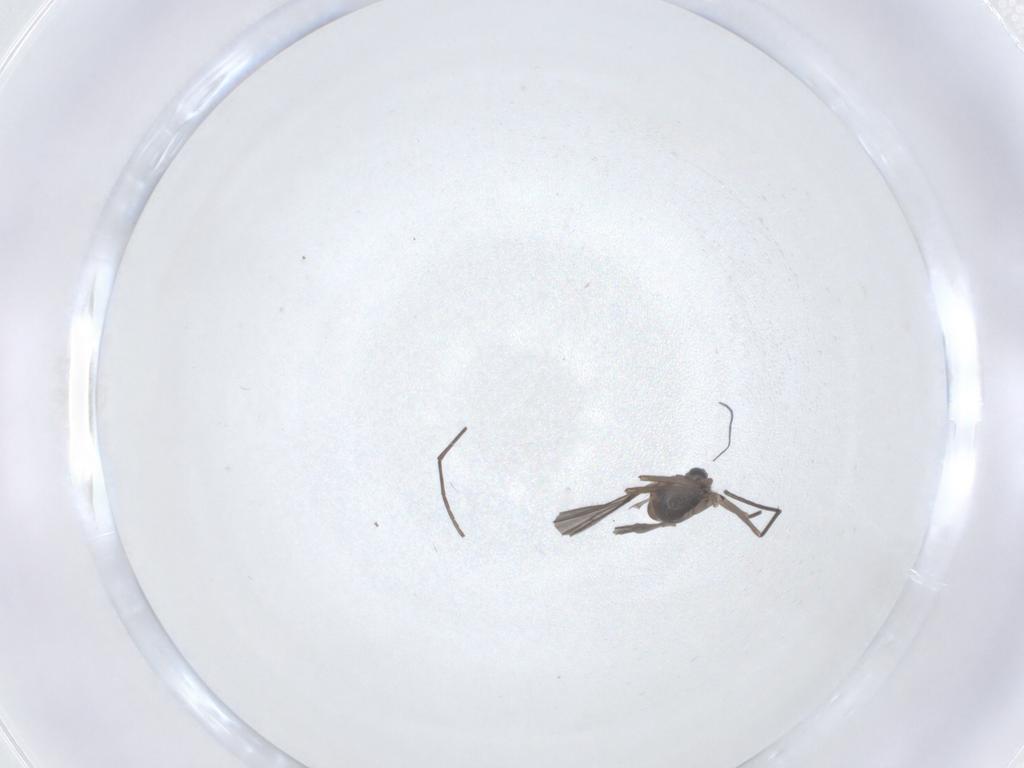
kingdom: Animalia
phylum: Arthropoda
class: Insecta
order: Diptera
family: Sciaridae
